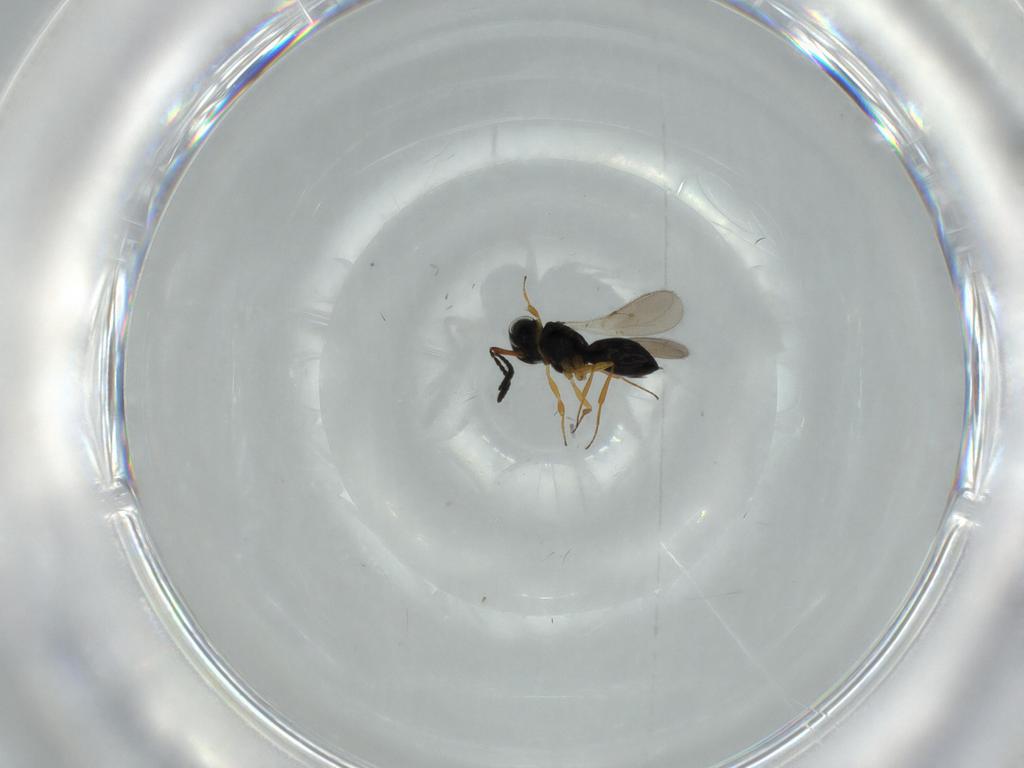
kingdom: Animalia
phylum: Arthropoda
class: Insecta
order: Hymenoptera
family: Scelionidae
